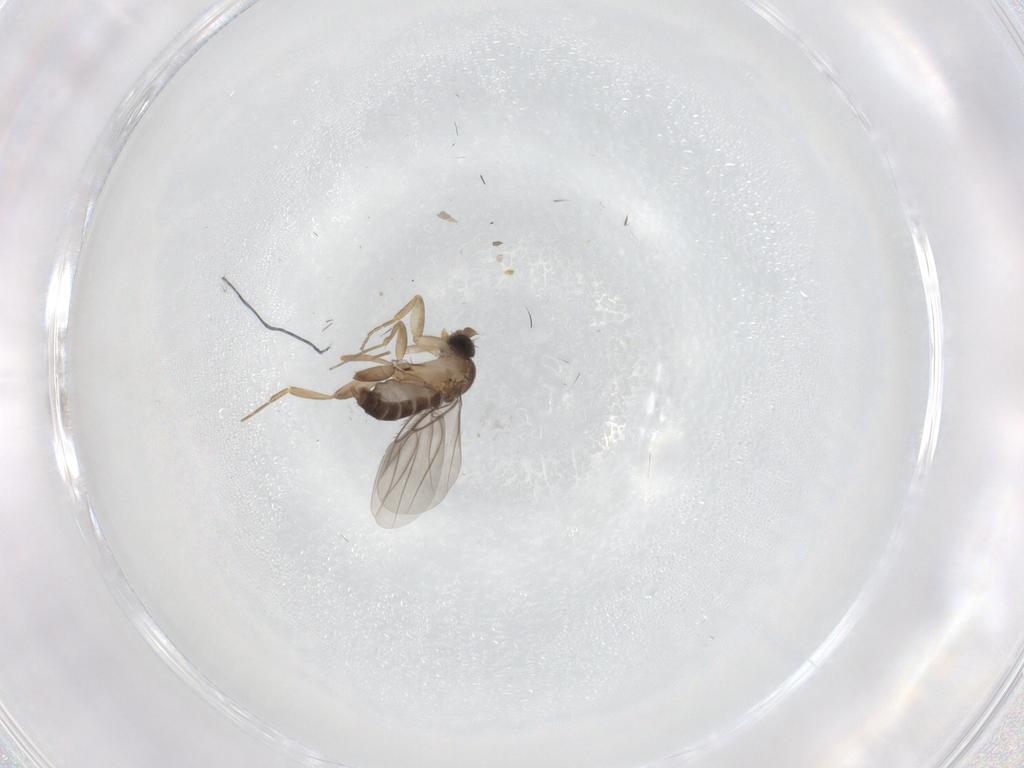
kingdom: Animalia
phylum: Arthropoda
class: Insecta
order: Diptera
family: Phoridae
